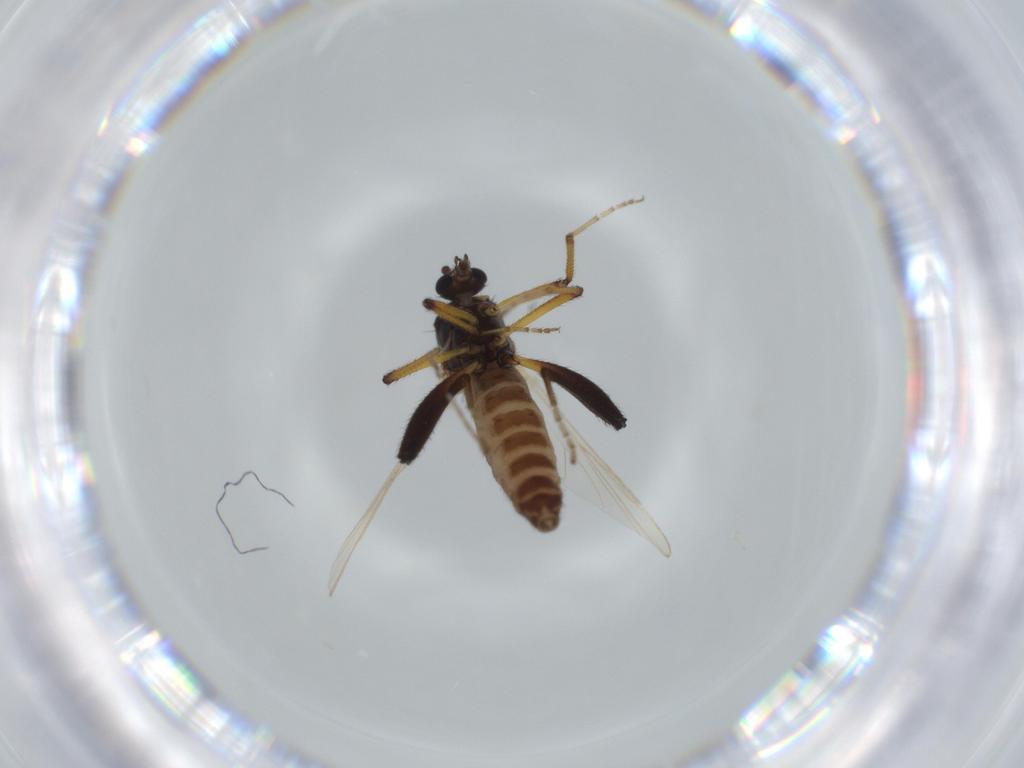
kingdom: Animalia
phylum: Arthropoda
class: Insecta
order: Diptera
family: Ceratopogonidae
